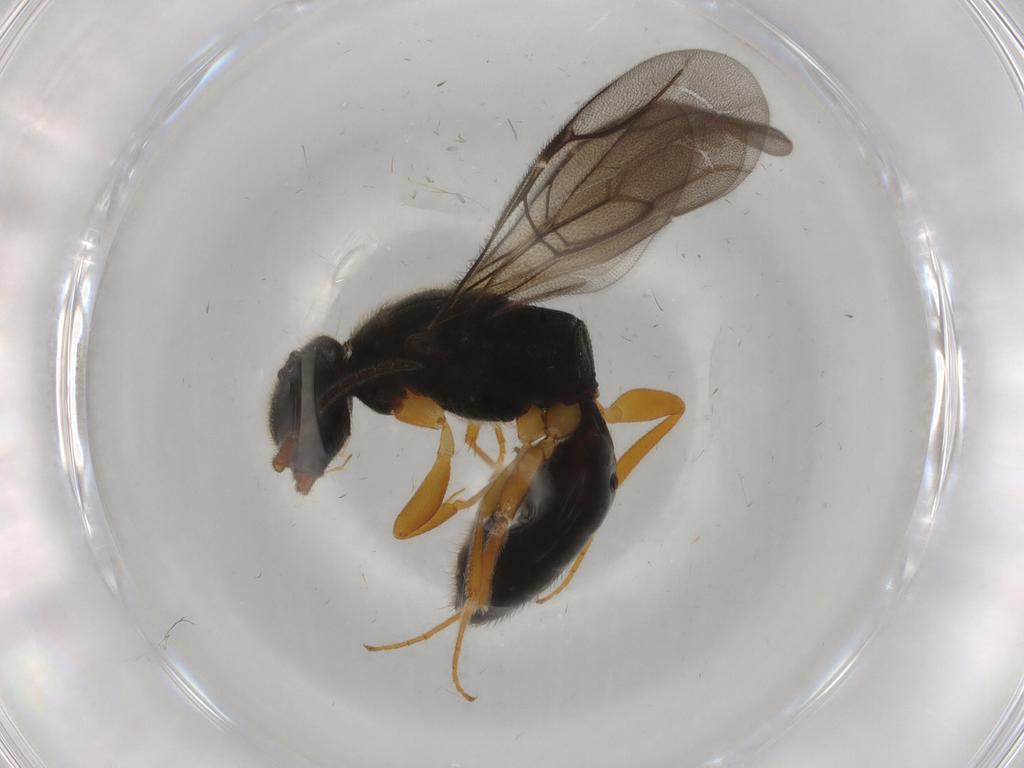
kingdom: Animalia
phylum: Arthropoda
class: Insecta
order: Hymenoptera
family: Bethylidae
